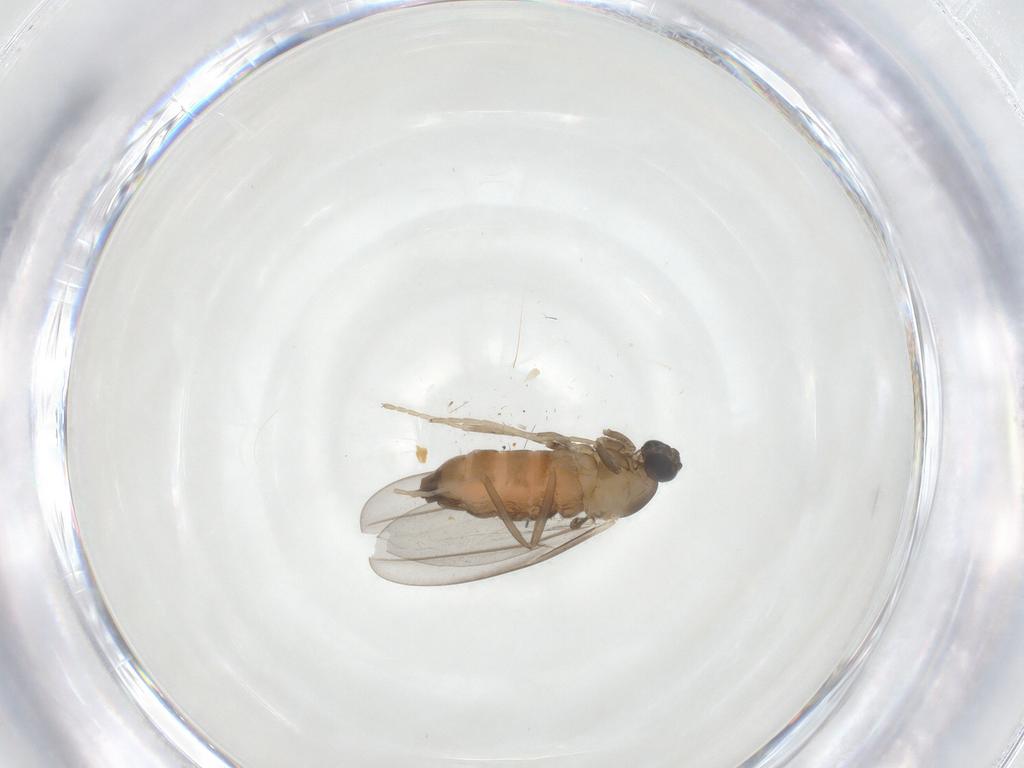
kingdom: Animalia
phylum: Arthropoda
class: Insecta
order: Diptera
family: Cecidomyiidae
